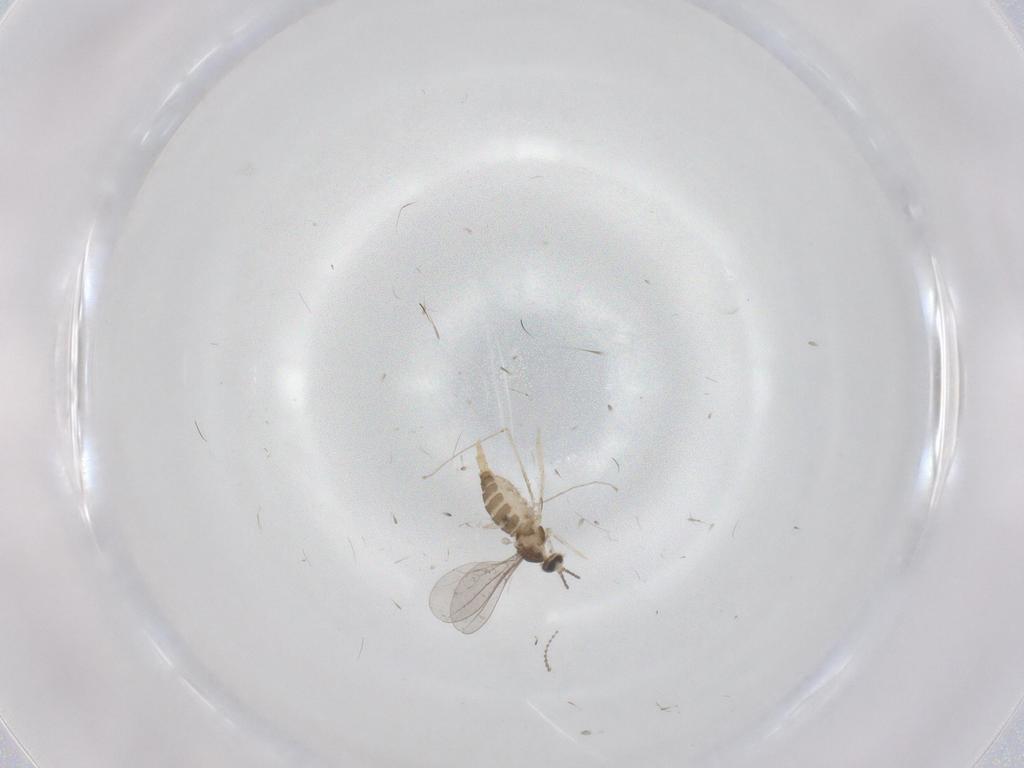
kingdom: Animalia
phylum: Arthropoda
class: Insecta
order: Diptera
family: Cecidomyiidae
